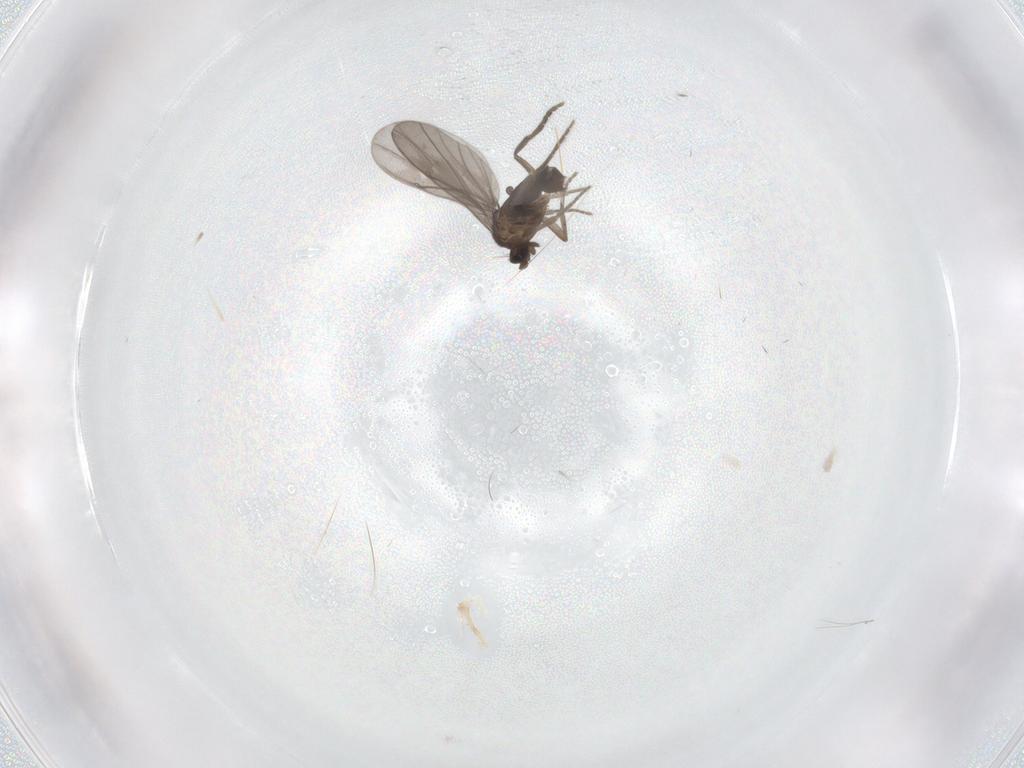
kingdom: Animalia
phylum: Arthropoda
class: Insecta
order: Diptera
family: Phoridae
